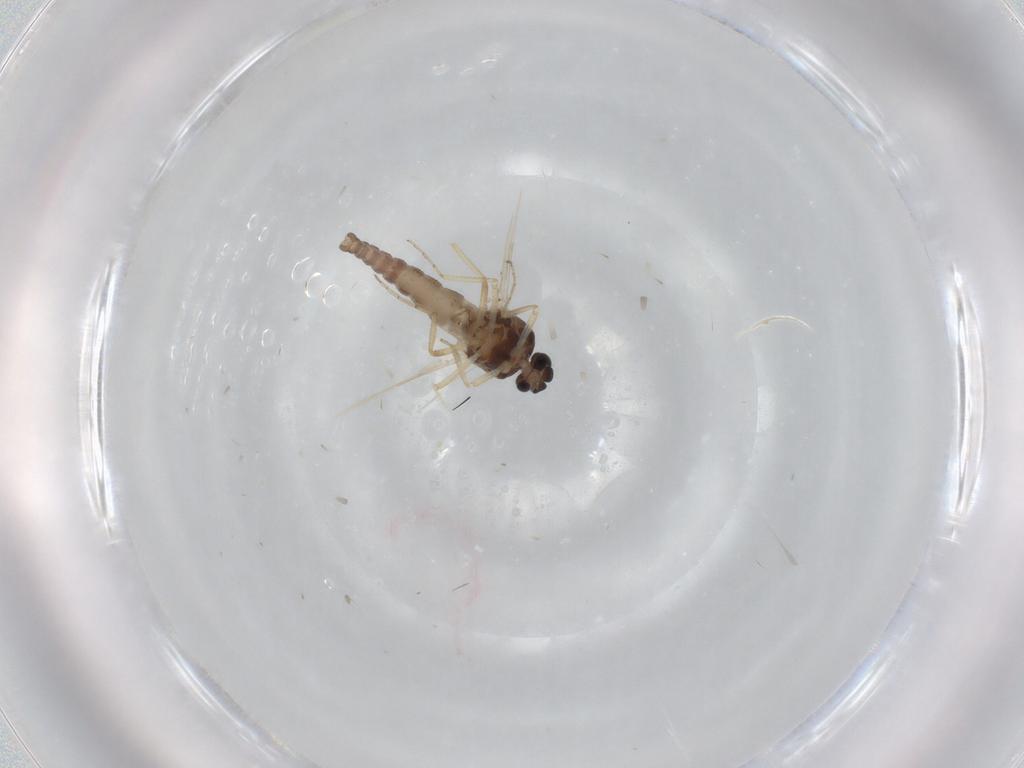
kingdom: Animalia
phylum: Arthropoda
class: Insecta
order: Diptera
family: Ceratopogonidae
